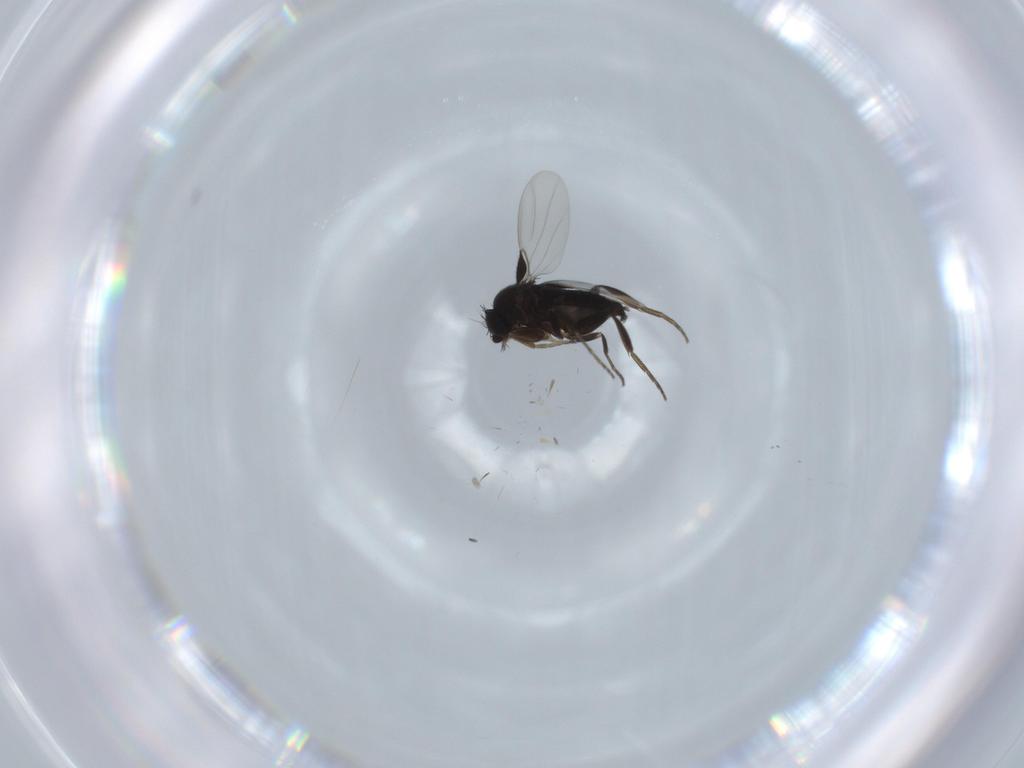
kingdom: Animalia
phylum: Arthropoda
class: Insecta
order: Diptera
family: Phoridae
